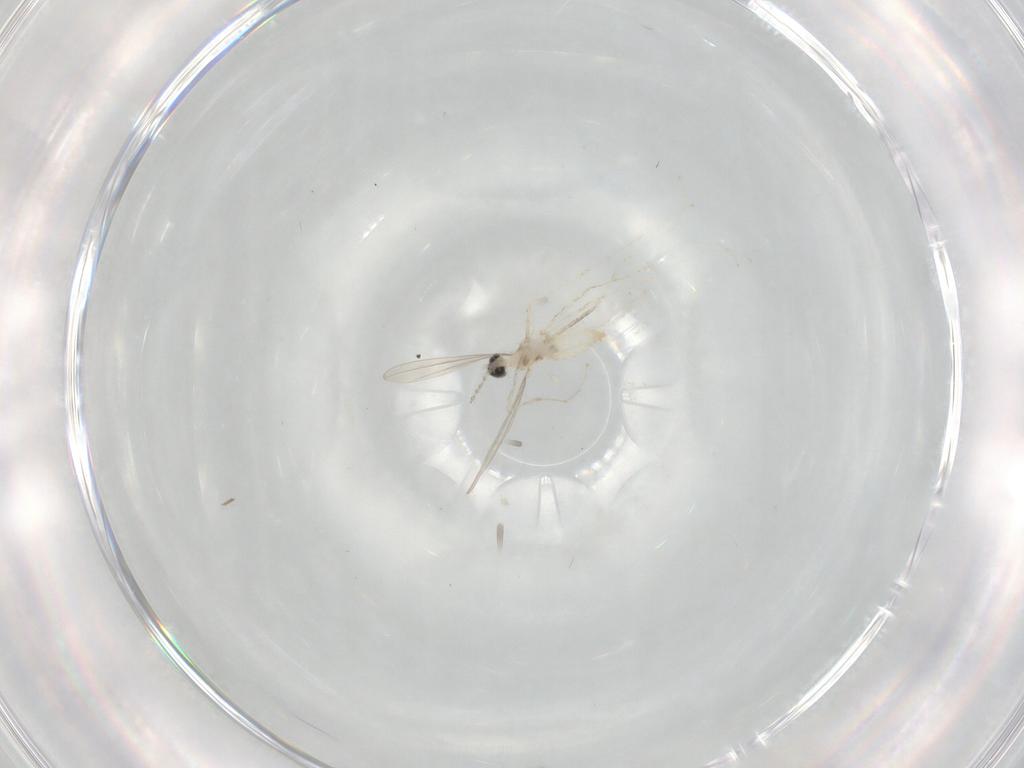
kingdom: Animalia
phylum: Arthropoda
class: Insecta
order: Diptera
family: Cecidomyiidae
